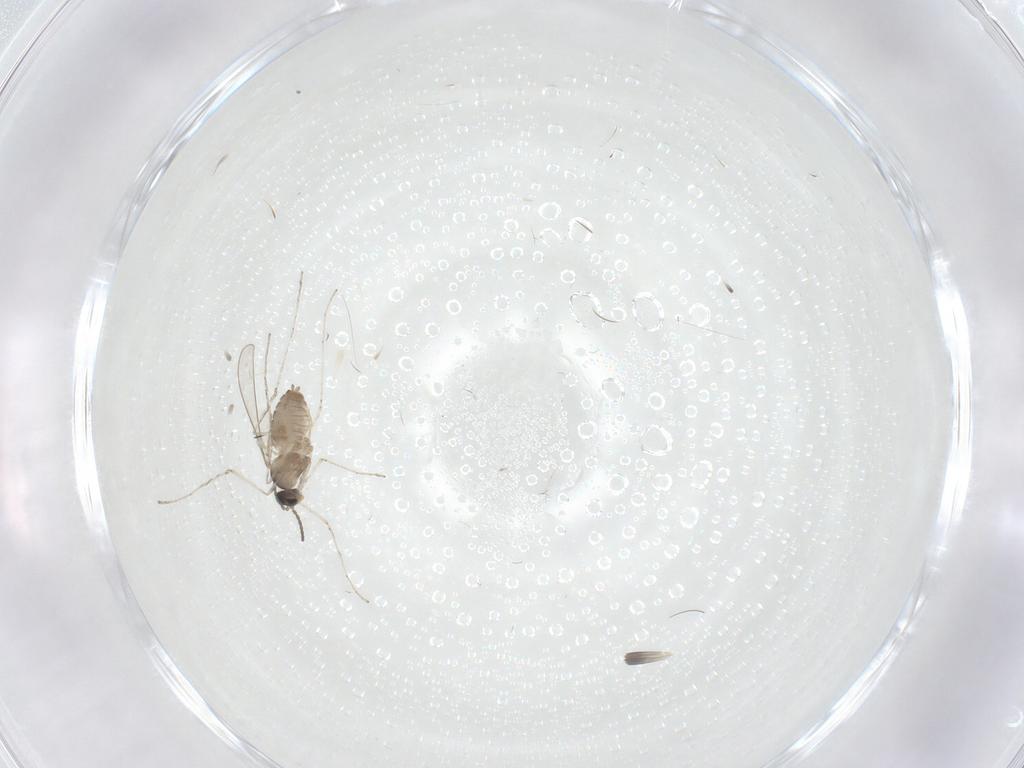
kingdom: Animalia
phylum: Arthropoda
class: Insecta
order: Diptera
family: Cecidomyiidae
